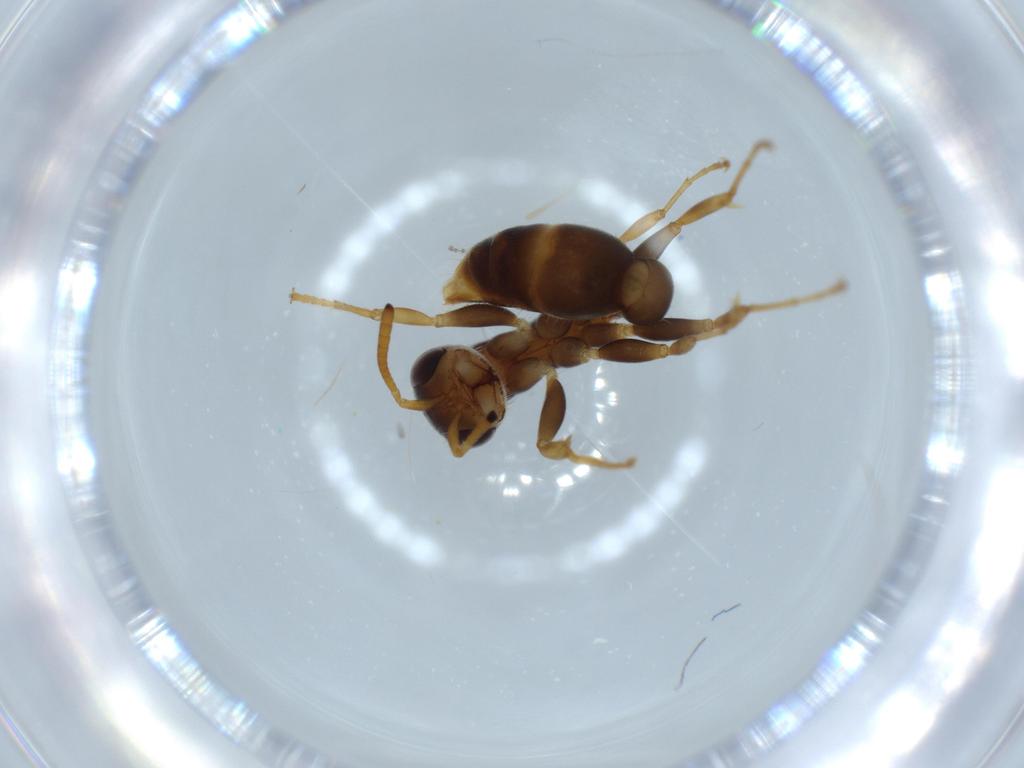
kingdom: Animalia
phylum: Arthropoda
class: Insecta
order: Hymenoptera
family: Formicidae
